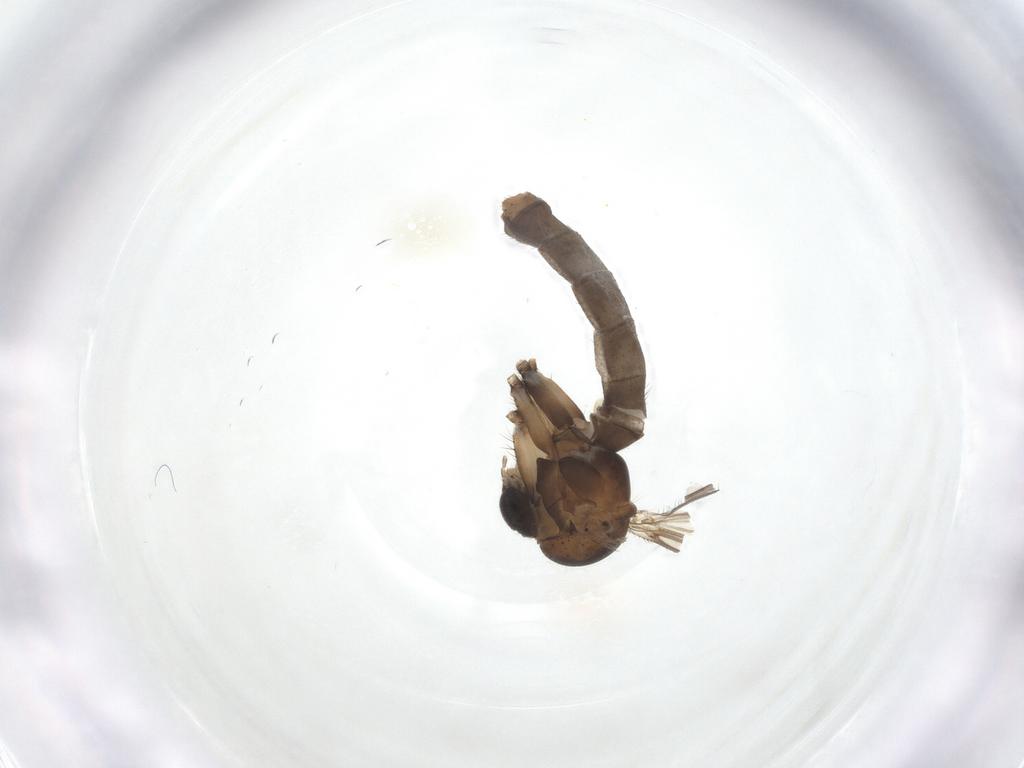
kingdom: Animalia
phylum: Arthropoda
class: Insecta
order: Diptera
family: Mycetophilidae
